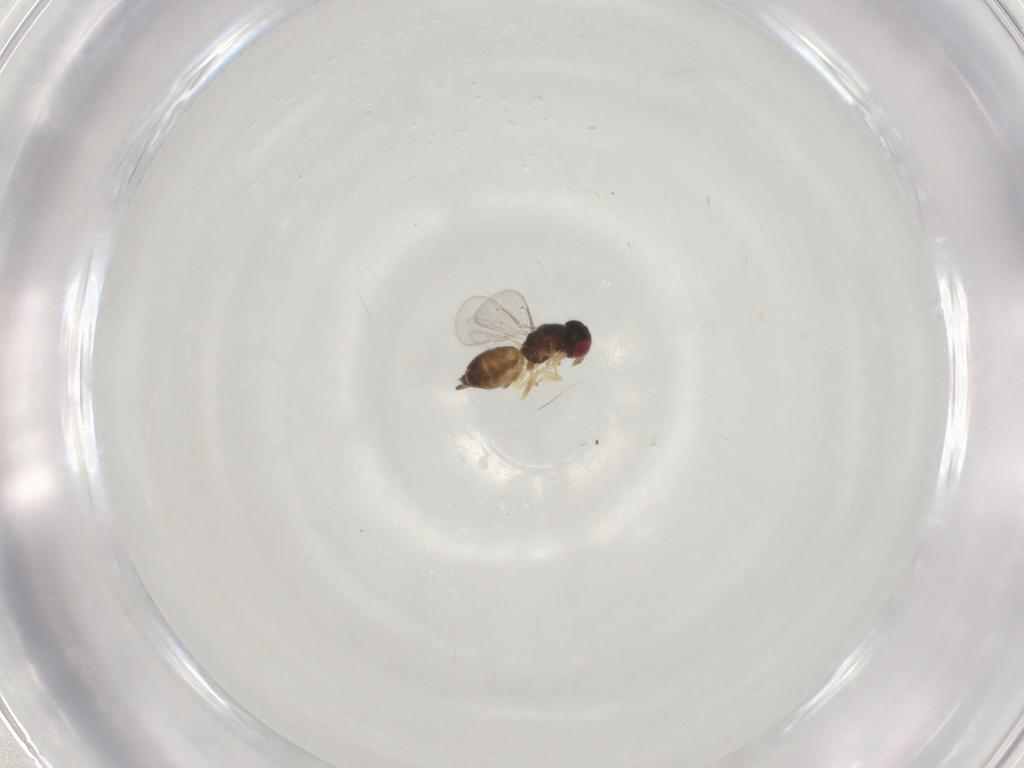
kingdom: Animalia
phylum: Arthropoda
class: Insecta
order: Hymenoptera
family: Eulophidae
